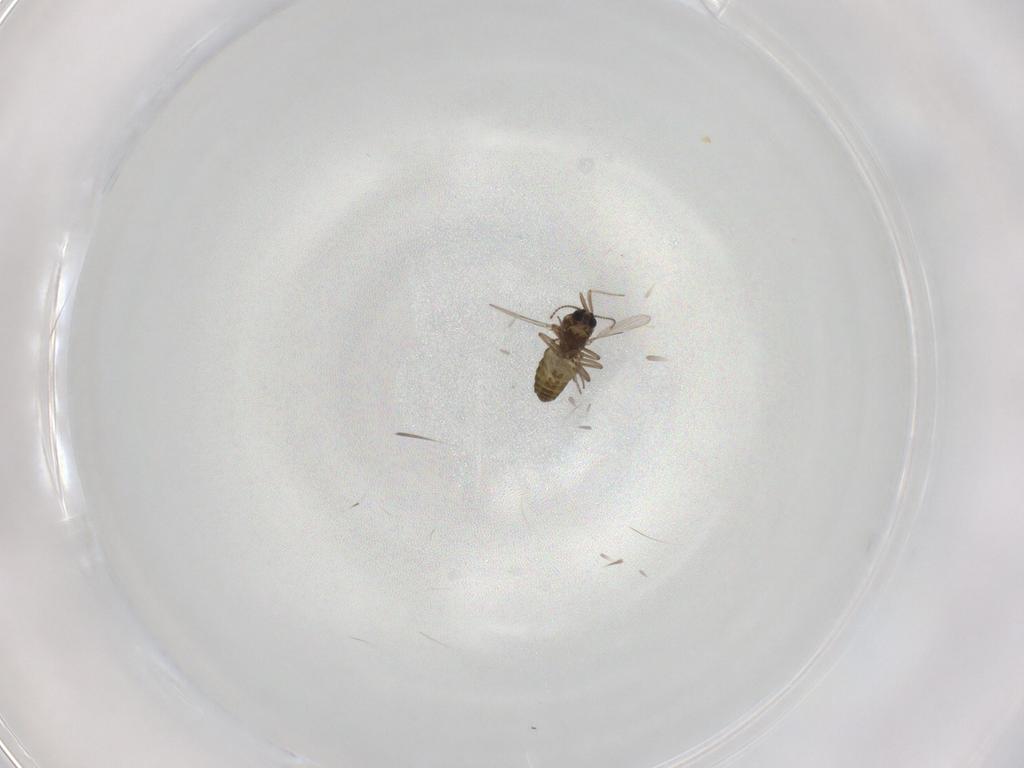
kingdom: Animalia
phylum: Arthropoda
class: Insecta
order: Diptera
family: Ceratopogonidae
